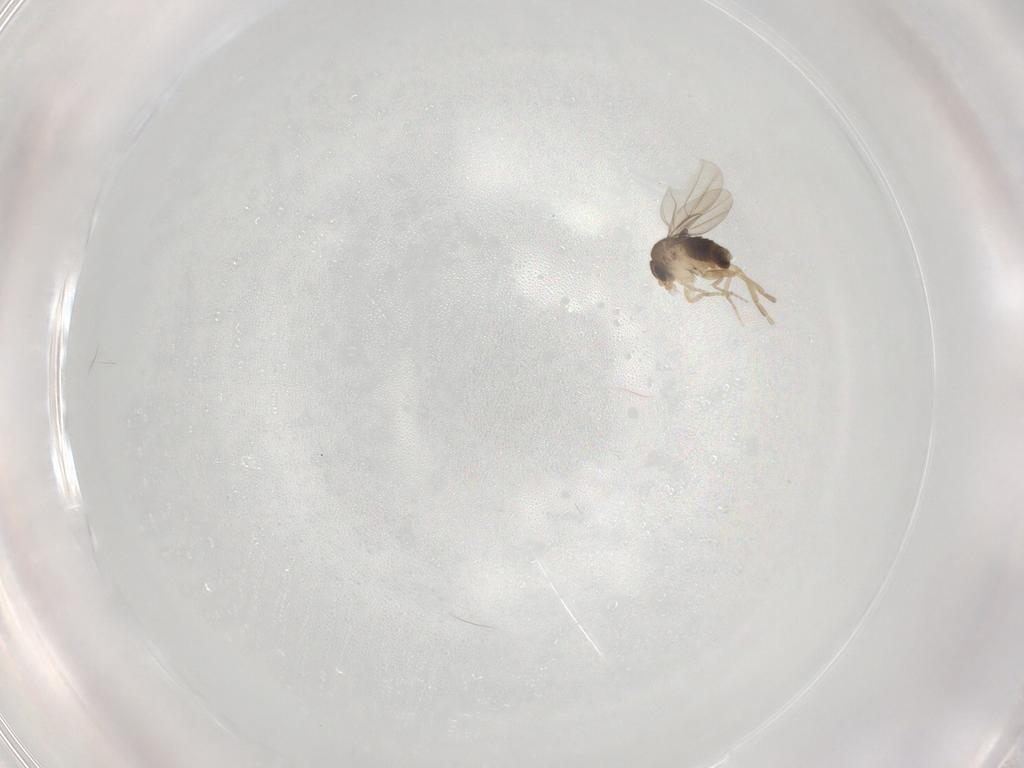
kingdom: Animalia
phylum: Arthropoda
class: Insecta
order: Diptera
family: Phoridae
